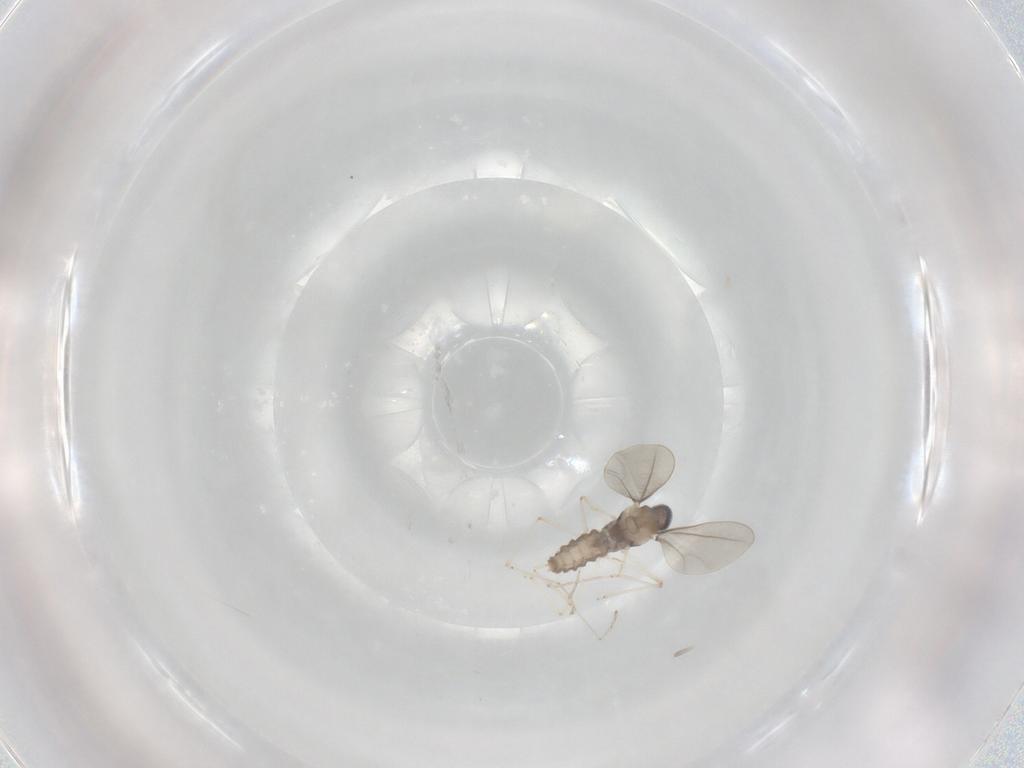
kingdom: Animalia
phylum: Arthropoda
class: Insecta
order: Diptera
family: Cecidomyiidae
